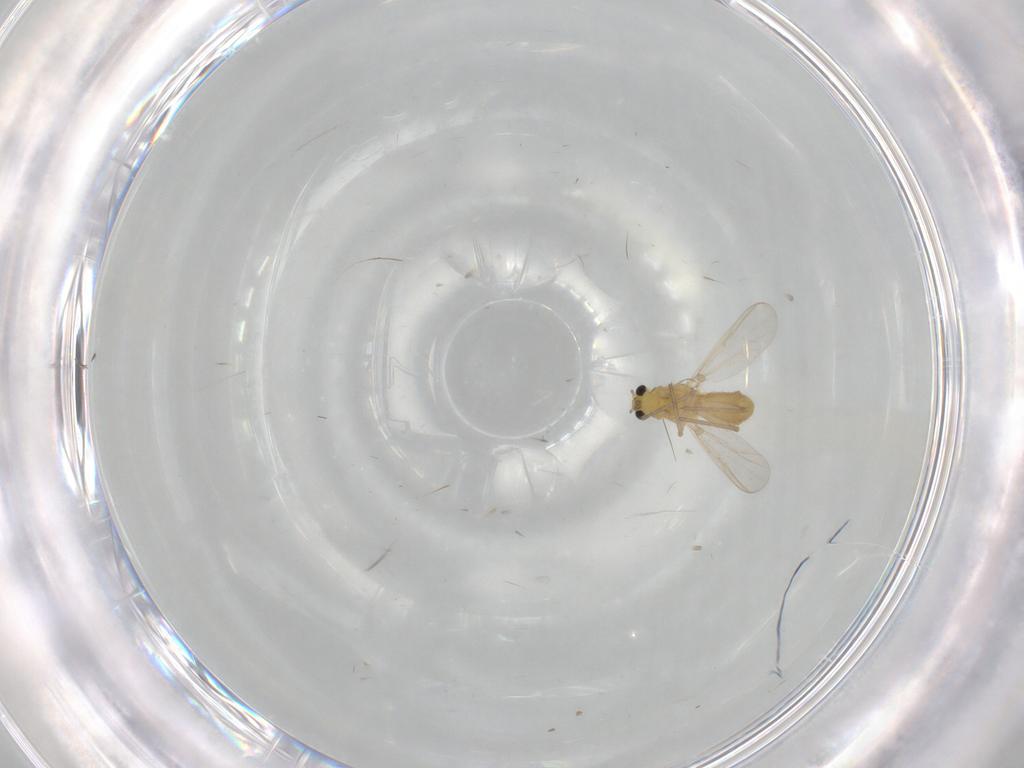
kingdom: Animalia
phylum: Arthropoda
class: Insecta
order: Diptera
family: Chironomidae
